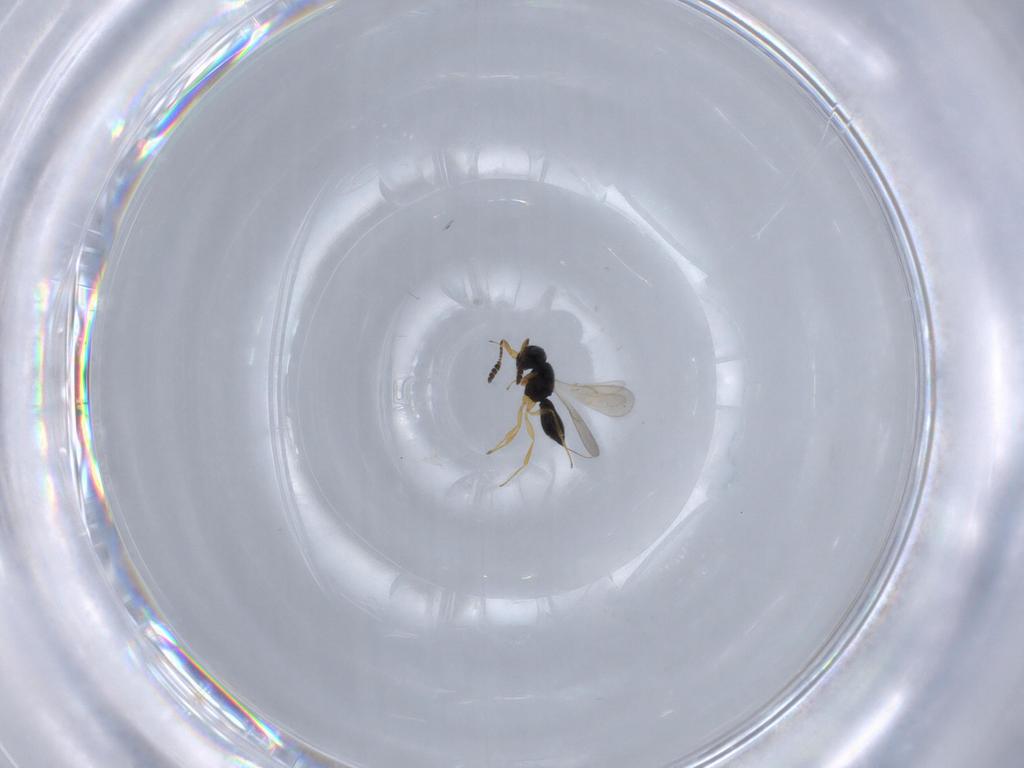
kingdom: Animalia
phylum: Arthropoda
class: Insecta
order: Hymenoptera
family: Scelionidae
